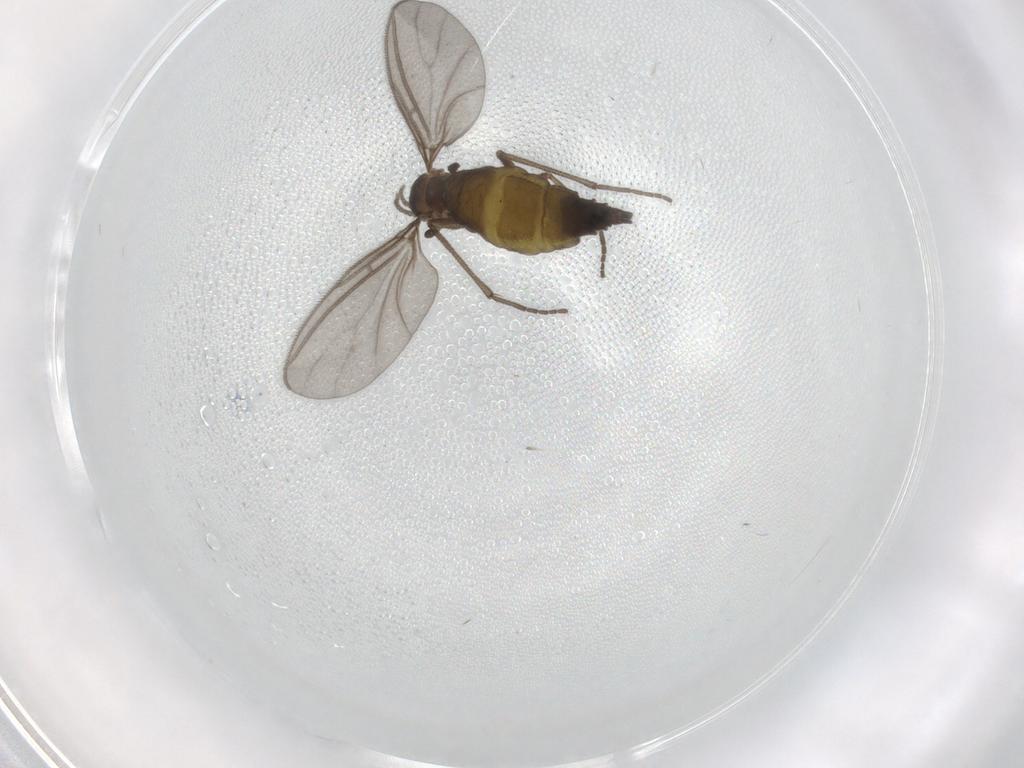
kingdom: Animalia
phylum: Arthropoda
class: Insecta
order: Diptera
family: Sciaridae
